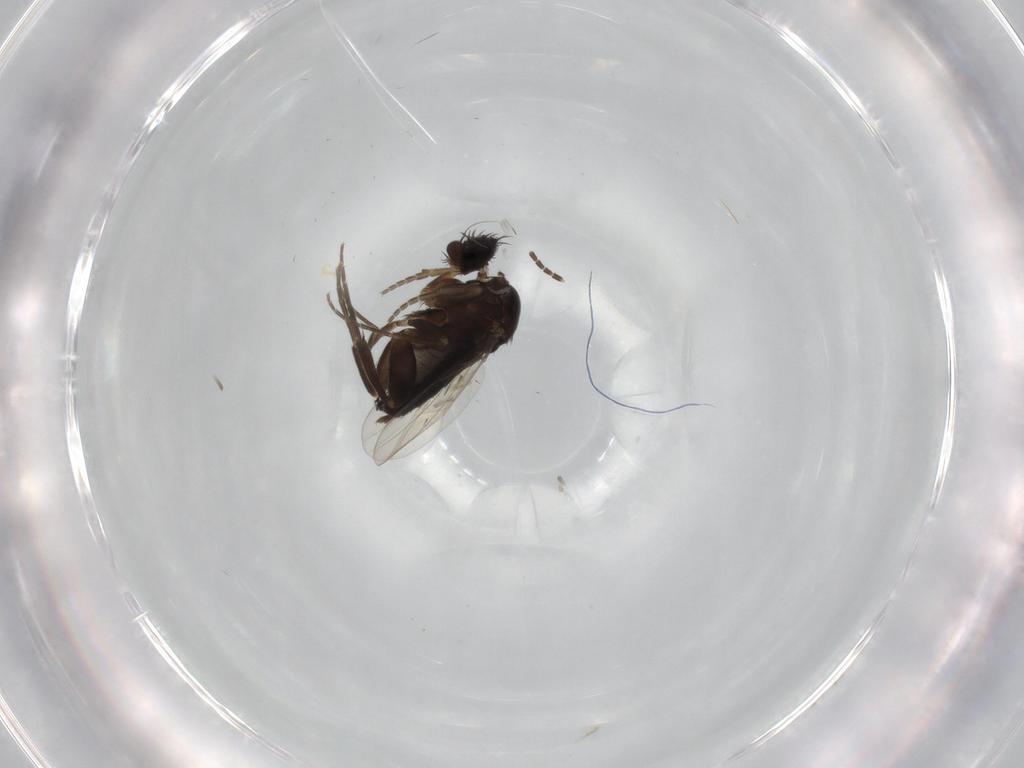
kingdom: Animalia
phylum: Arthropoda
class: Insecta
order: Diptera
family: Phoridae
